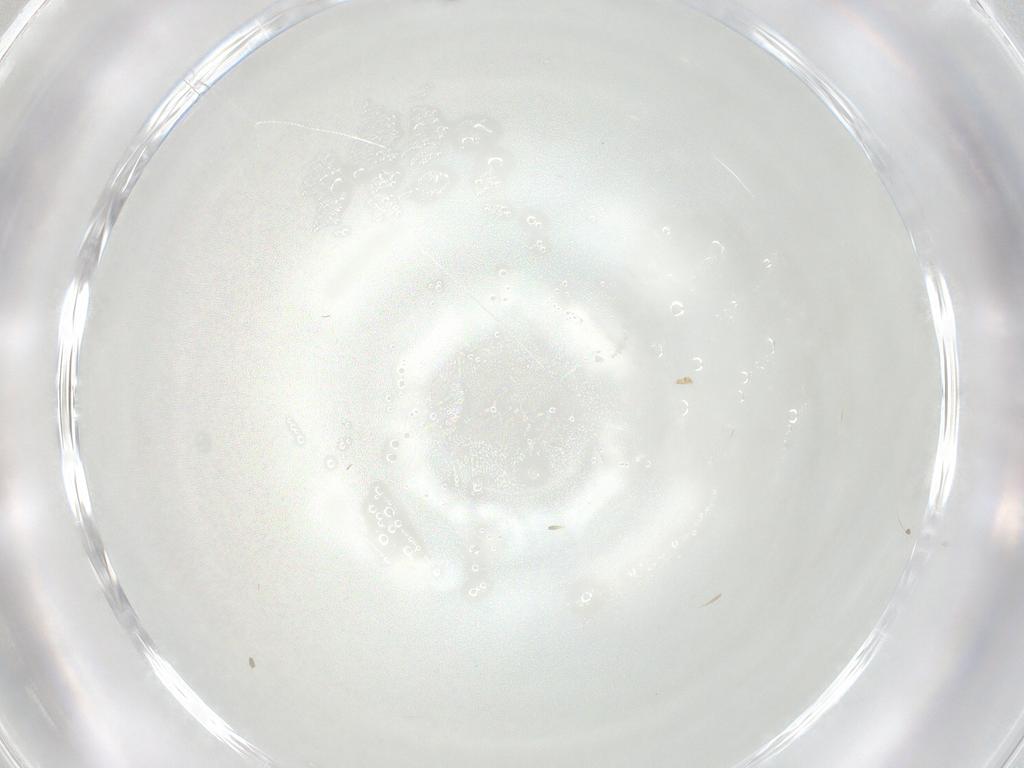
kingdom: Animalia
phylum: Arthropoda
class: Insecta
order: Diptera
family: Chironomidae
